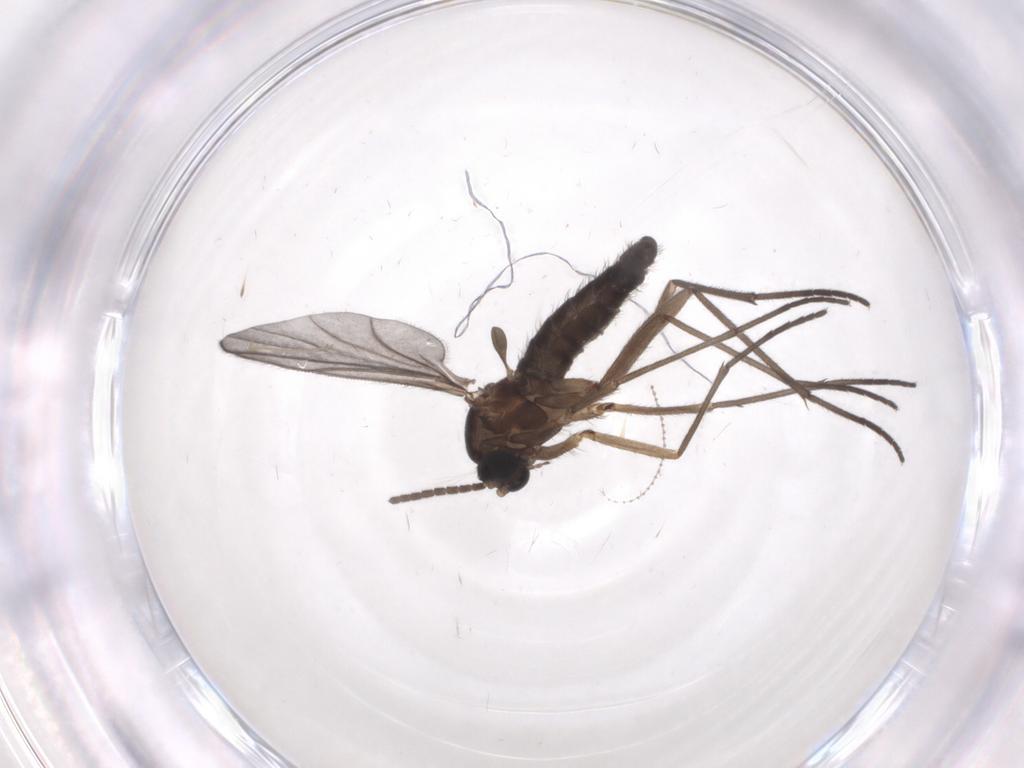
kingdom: Animalia
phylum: Arthropoda
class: Insecta
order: Diptera
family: Sciaridae
